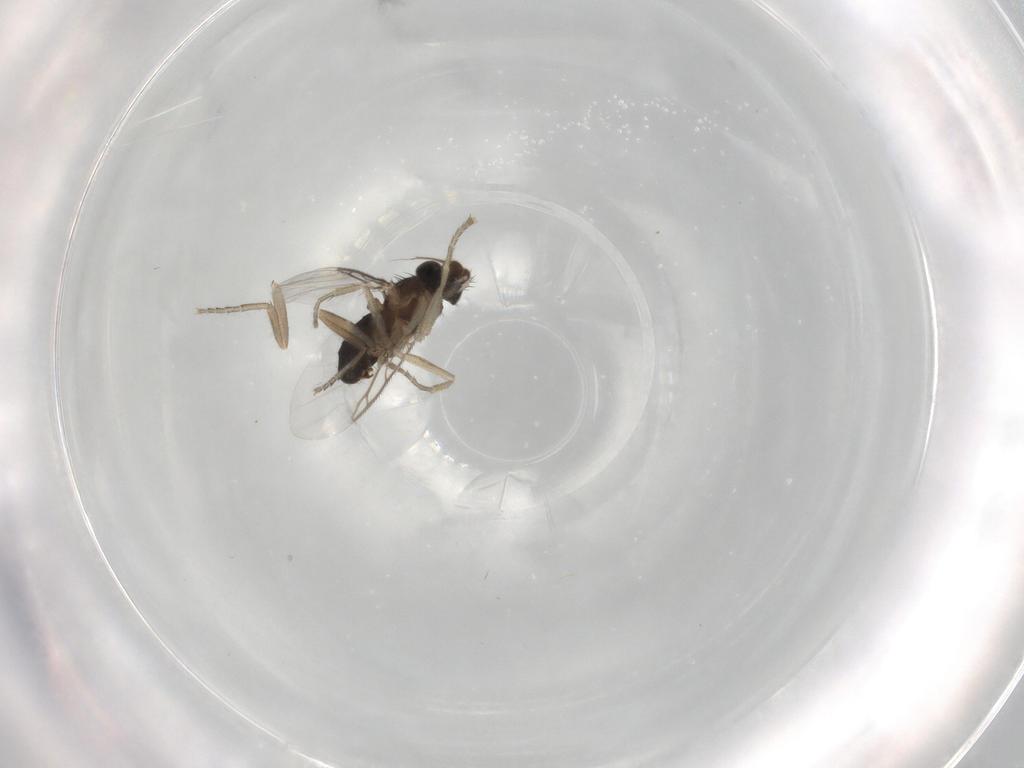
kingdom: Animalia
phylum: Arthropoda
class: Insecta
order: Diptera
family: Phoridae
